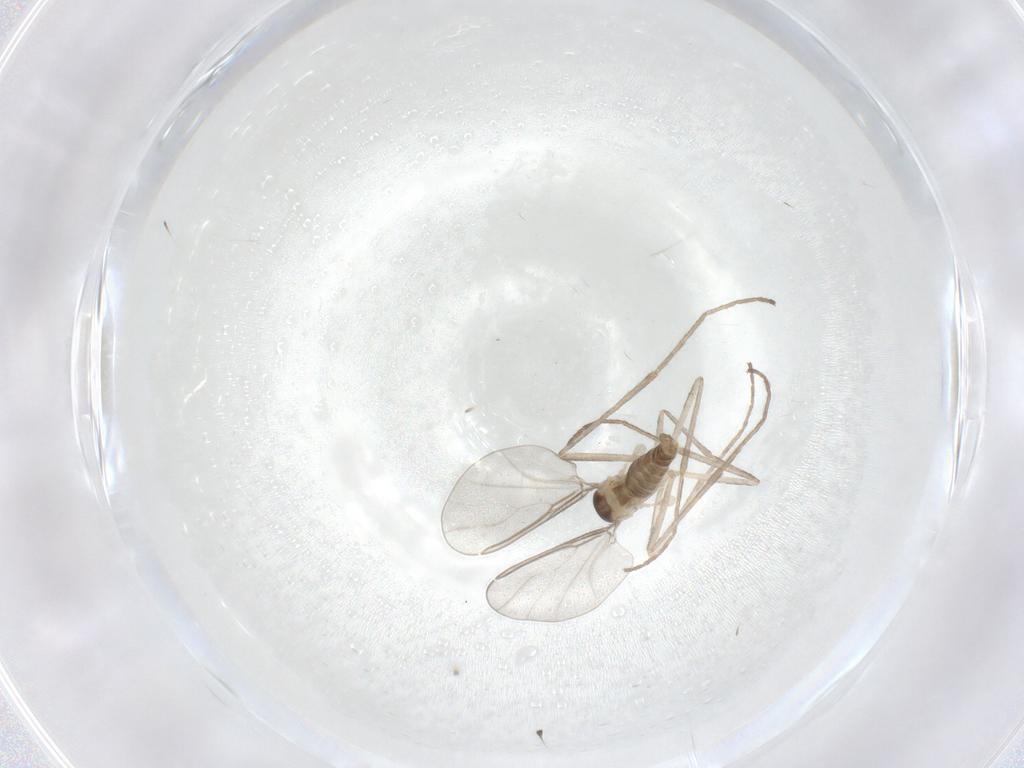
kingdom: Animalia
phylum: Arthropoda
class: Insecta
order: Diptera
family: Cecidomyiidae
